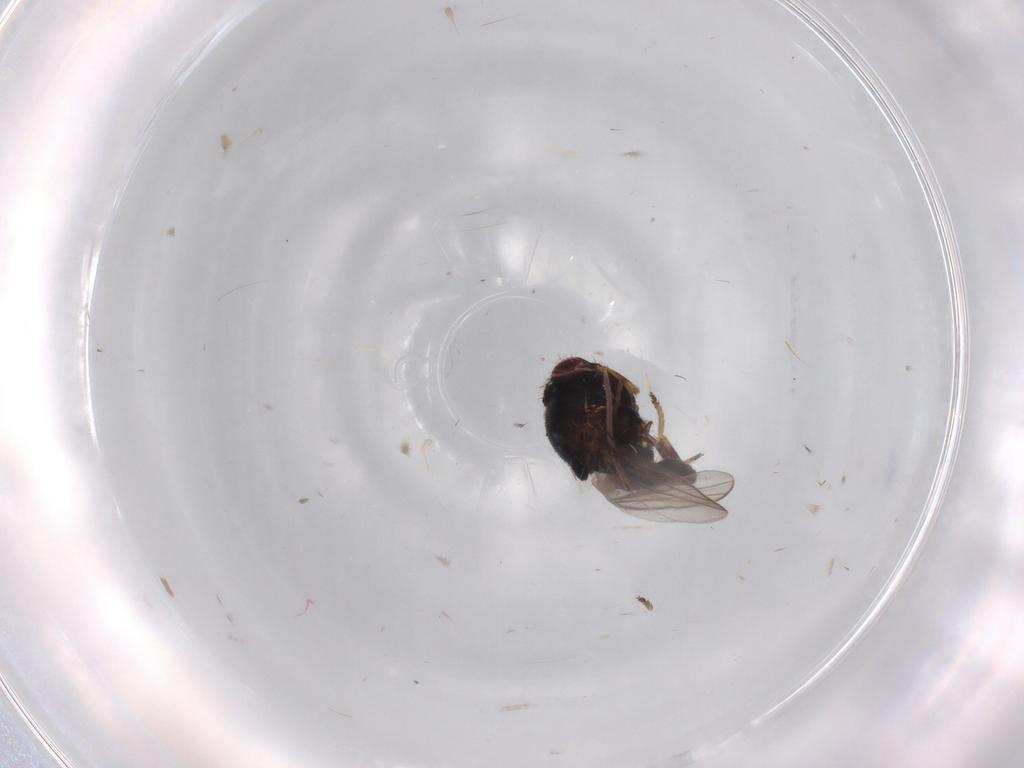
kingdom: Animalia
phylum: Arthropoda
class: Insecta
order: Diptera
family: Chloropidae
